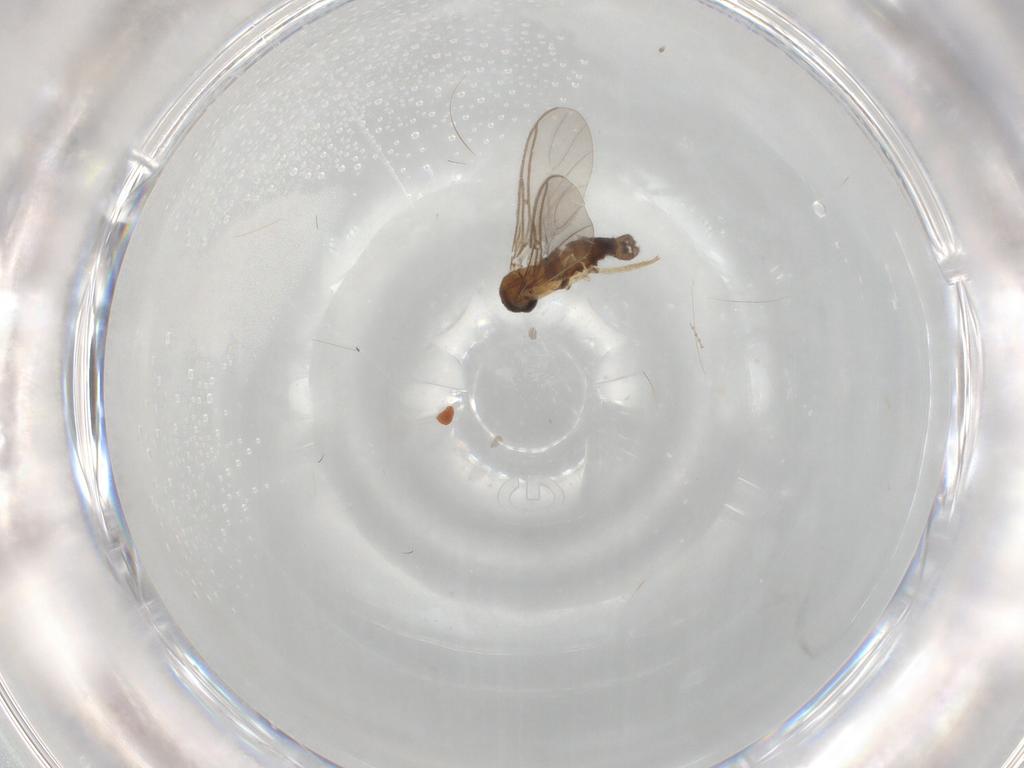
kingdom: Animalia
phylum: Arthropoda
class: Insecta
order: Diptera
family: Sciaridae
